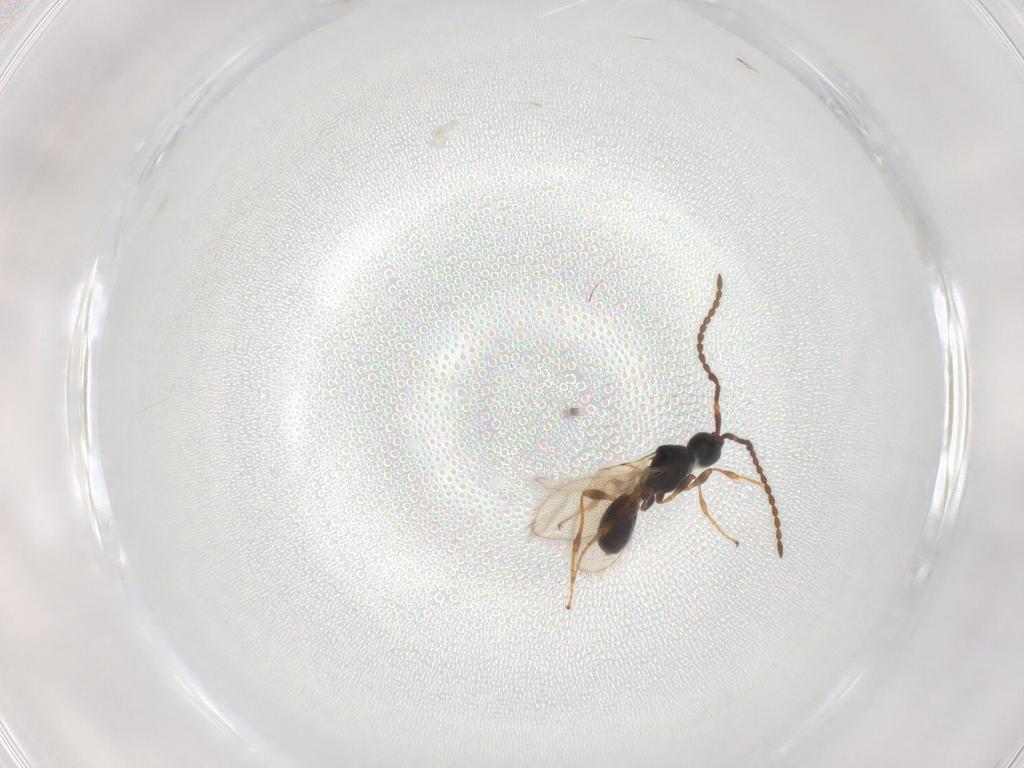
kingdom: Animalia
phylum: Arthropoda
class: Insecta
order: Hymenoptera
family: Diapriidae
